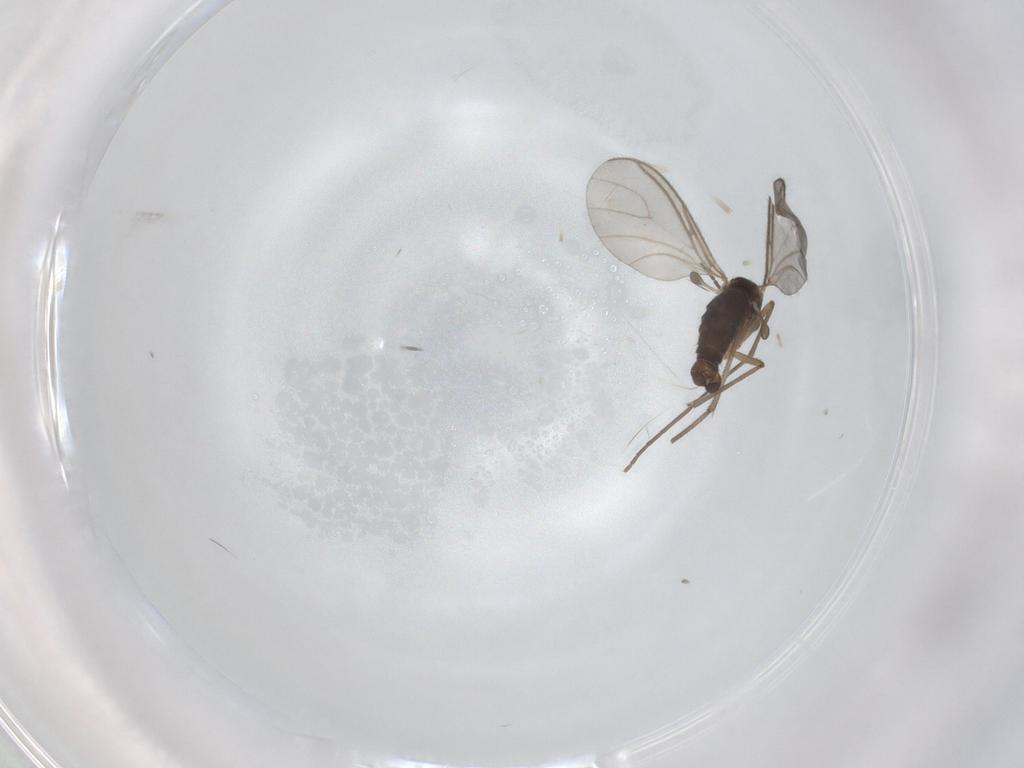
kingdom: Animalia
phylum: Arthropoda
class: Insecta
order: Diptera
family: Sciaridae
